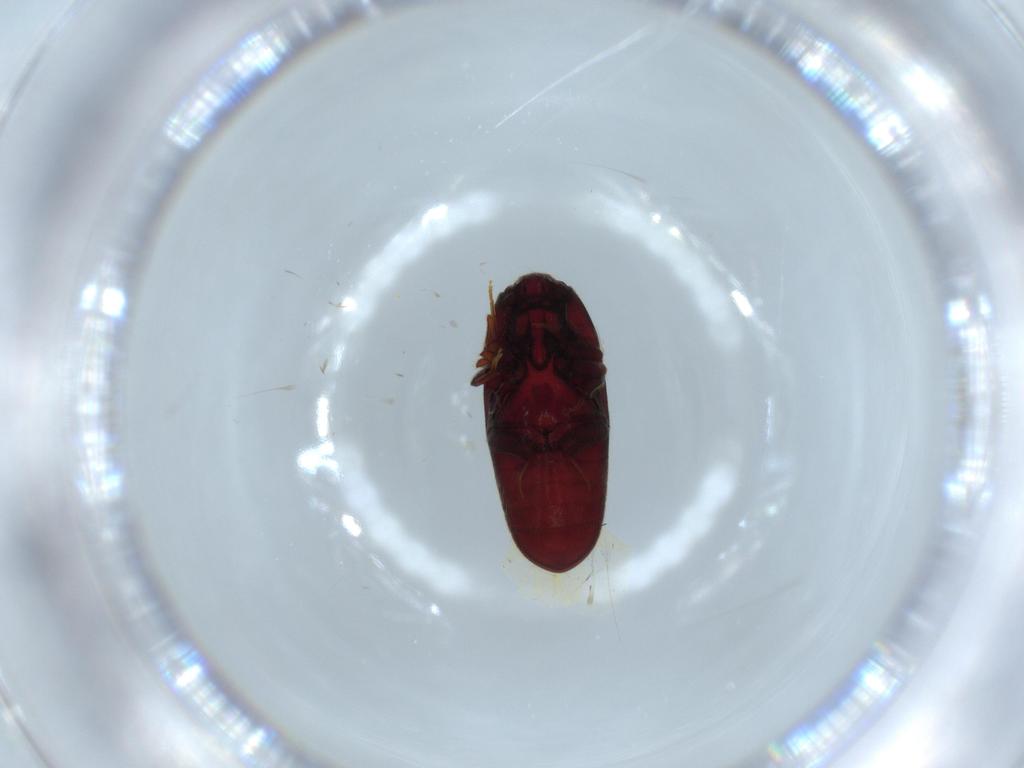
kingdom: Animalia
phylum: Arthropoda
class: Insecta
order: Coleoptera
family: Throscidae
